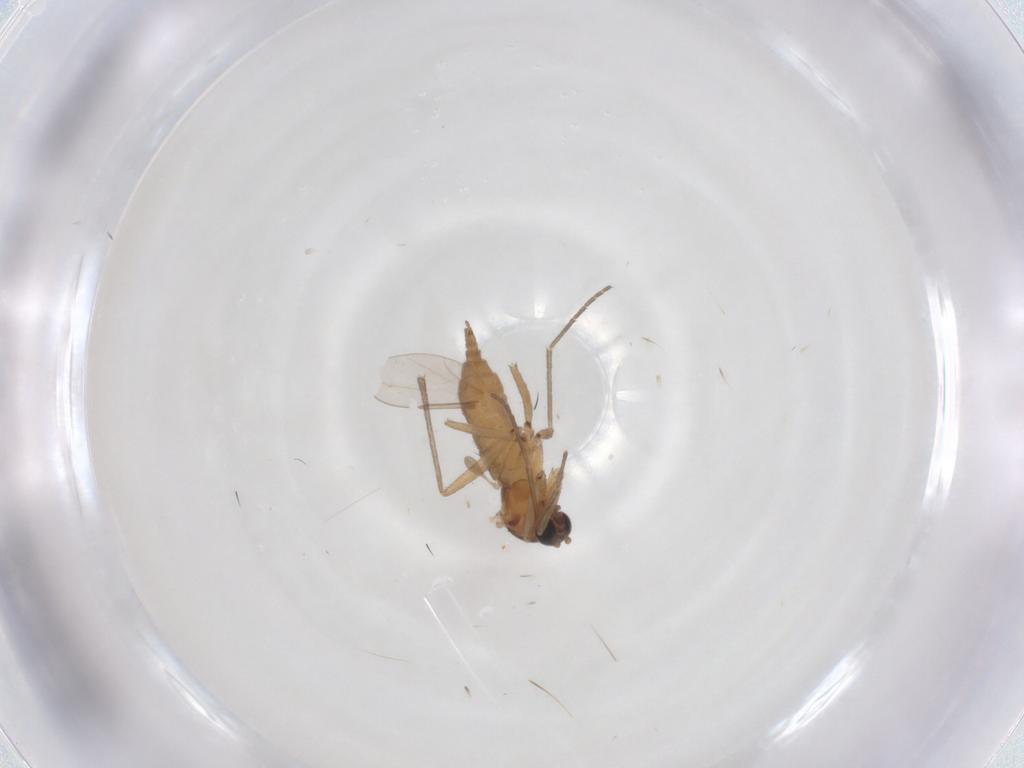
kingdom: Animalia
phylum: Arthropoda
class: Insecta
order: Diptera
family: Sciaridae
